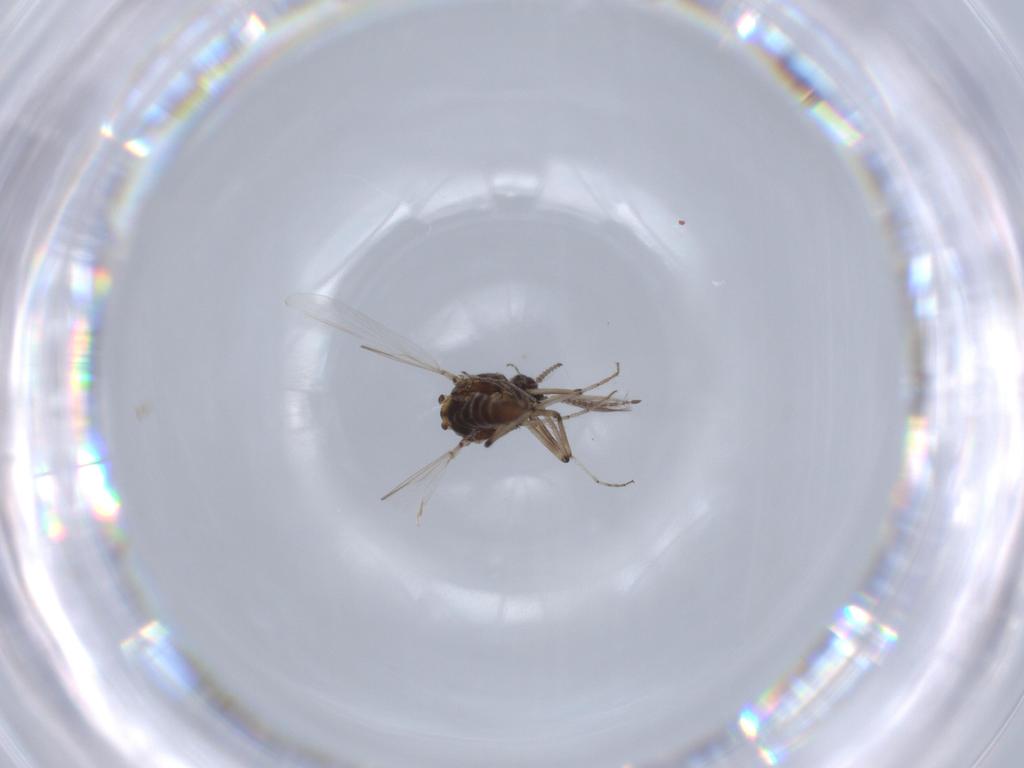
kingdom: Animalia
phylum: Arthropoda
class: Insecta
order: Diptera
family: Ceratopogonidae
